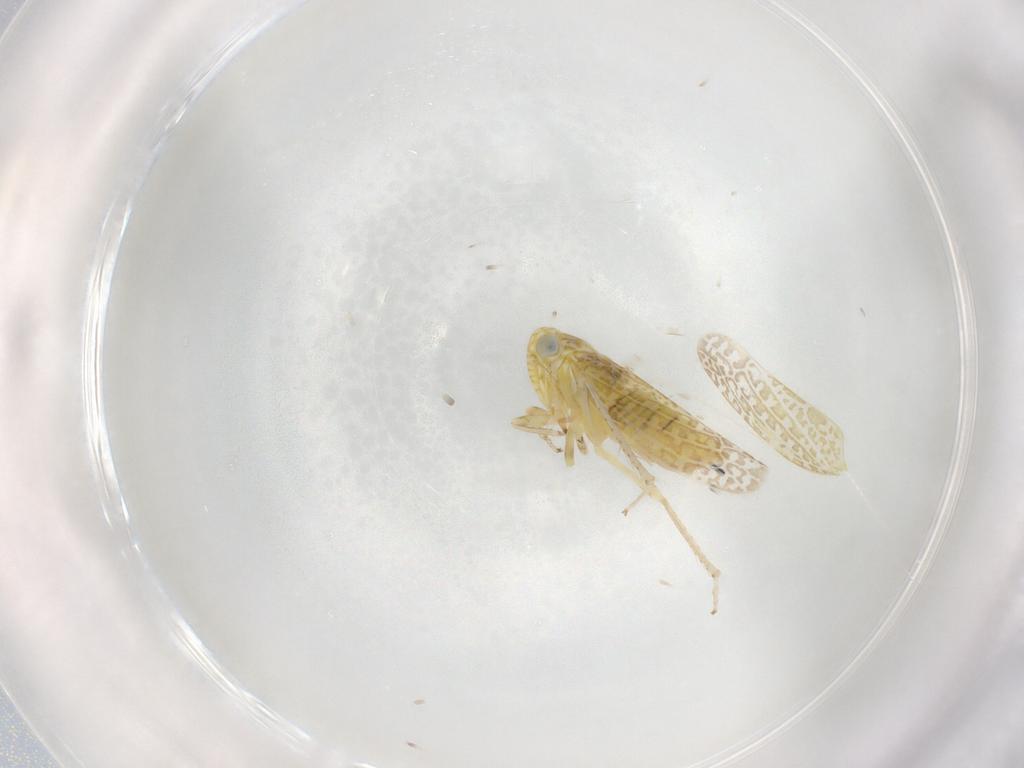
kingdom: Animalia
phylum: Arthropoda
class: Insecta
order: Hemiptera
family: Cicadellidae
